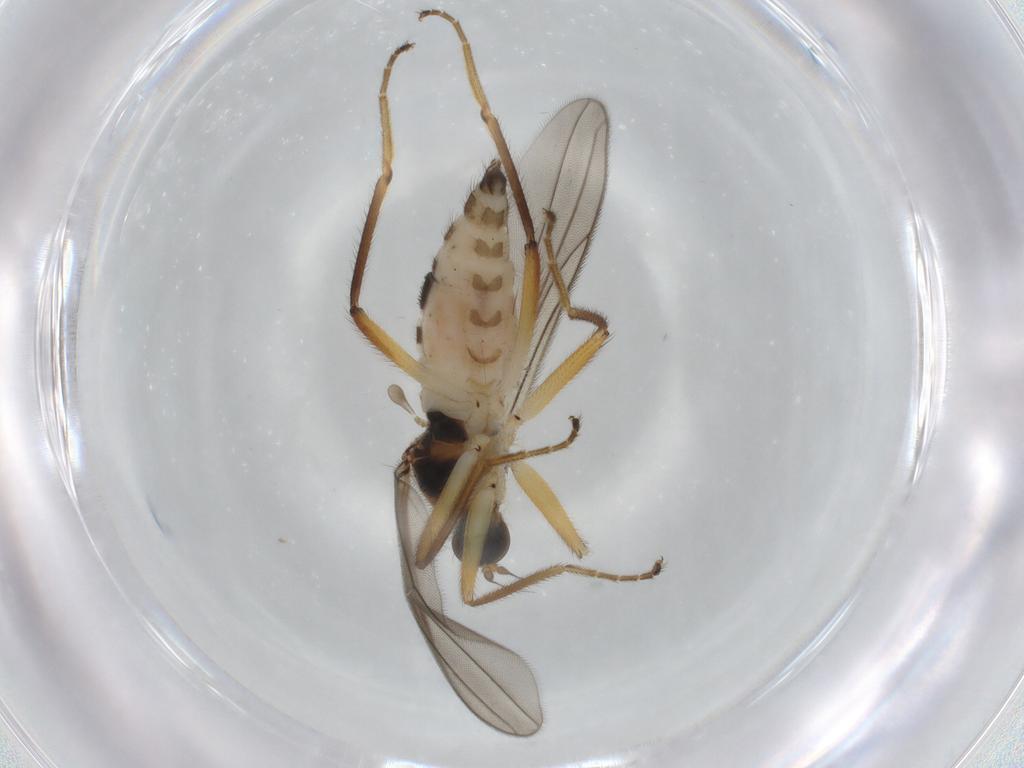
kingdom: Animalia
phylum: Arthropoda
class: Insecta
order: Diptera
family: Hybotidae
